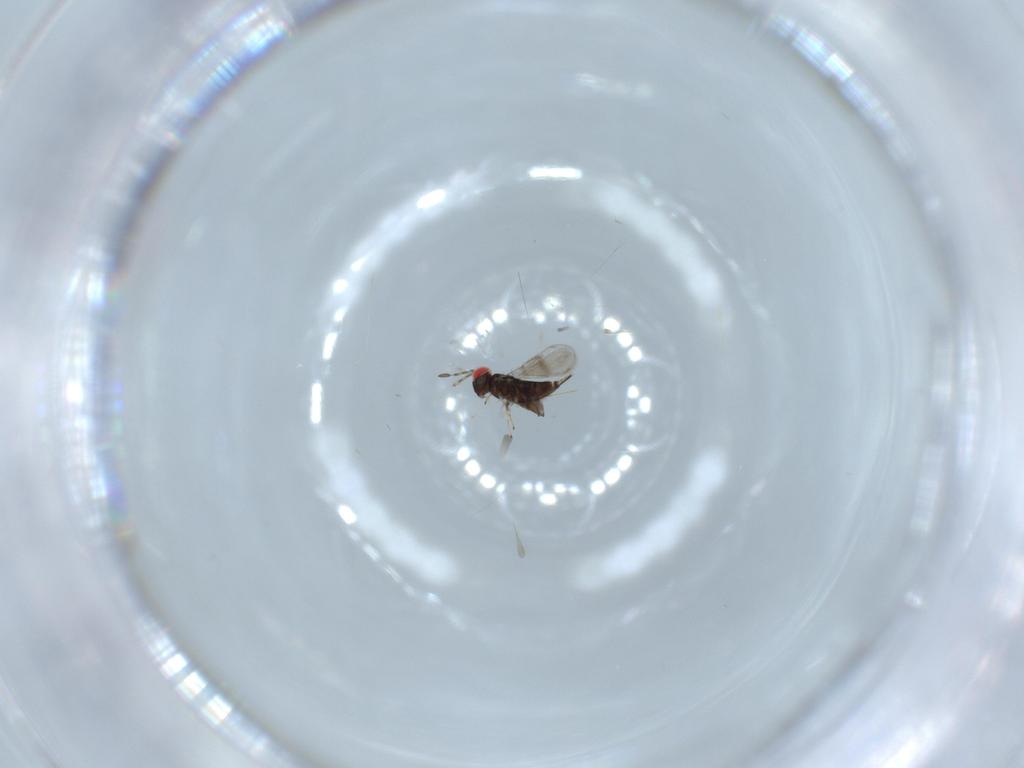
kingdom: Animalia
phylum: Arthropoda
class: Insecta
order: Hymenoptera
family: Azotidae
